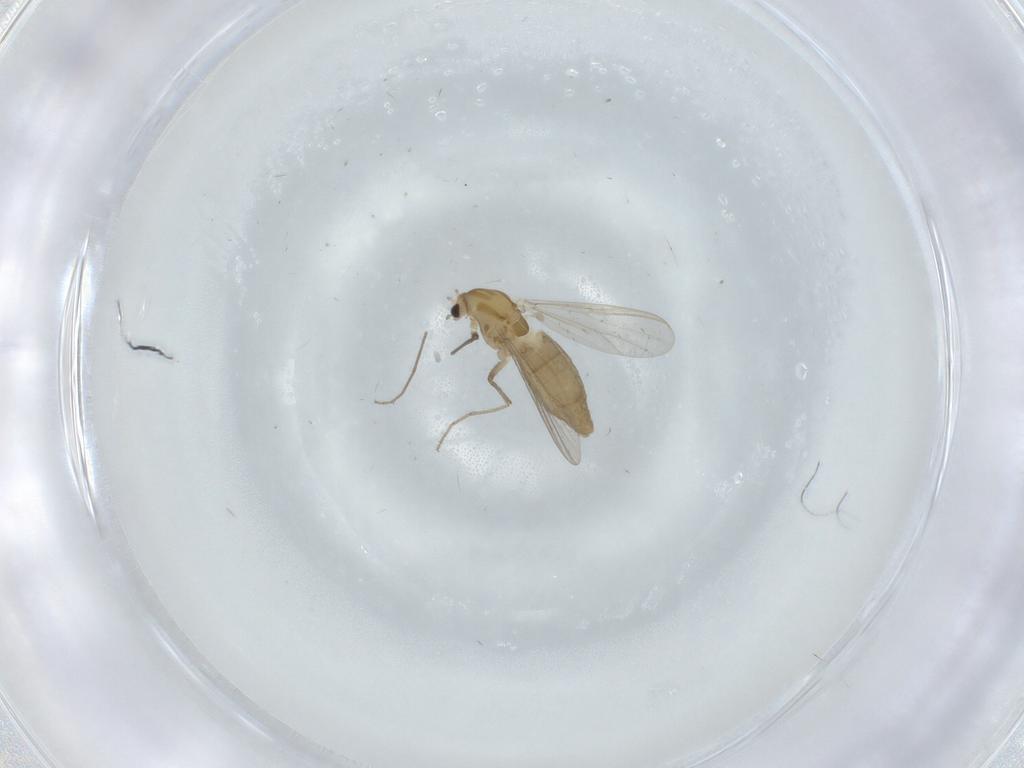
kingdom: Animalia
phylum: Arthropoda
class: Insecta
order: Diptera
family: Chironomidae
